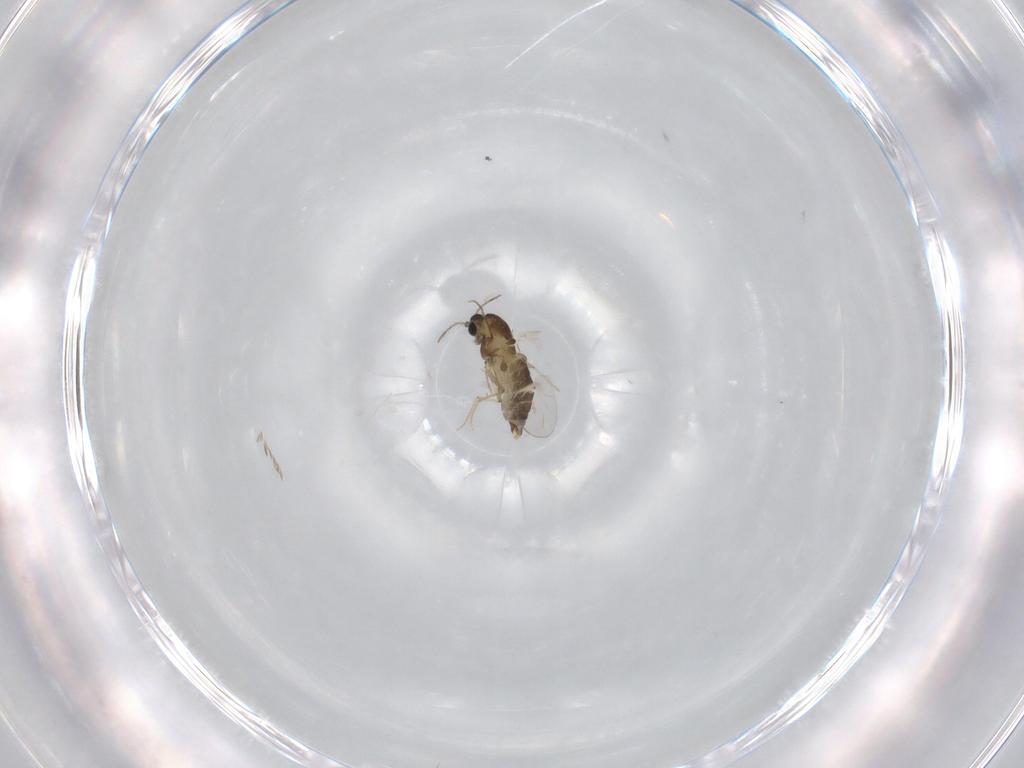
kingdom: Animalia
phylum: Arthropoda
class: Insecta
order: Diptera
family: Chironomidae
